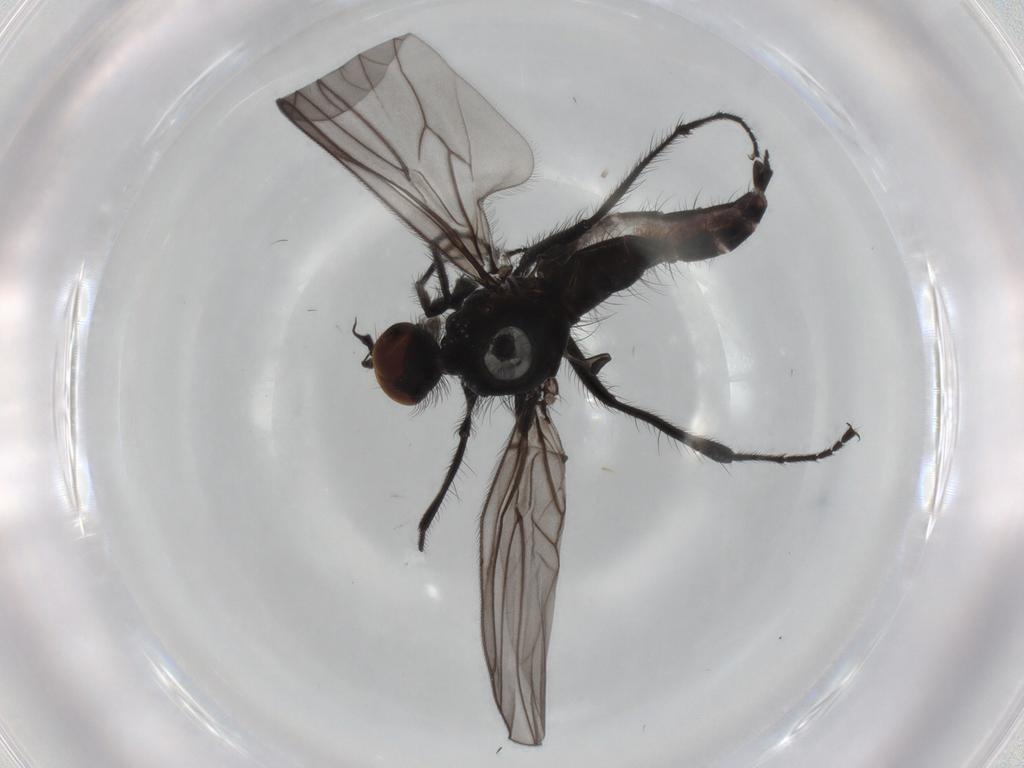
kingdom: Animalia
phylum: Arthropoda
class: Insecta
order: Diptera
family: Hybotidae
